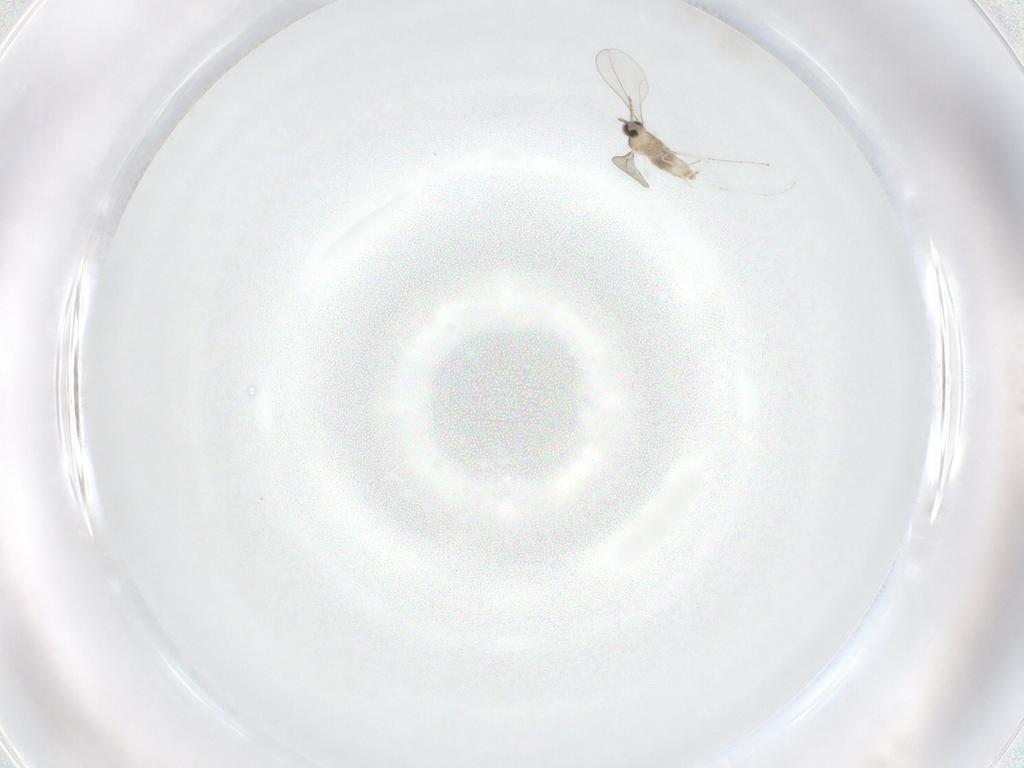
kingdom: Animalia
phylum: Arthropoda
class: Insecta
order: Diptera
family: Cecidomyiidae
